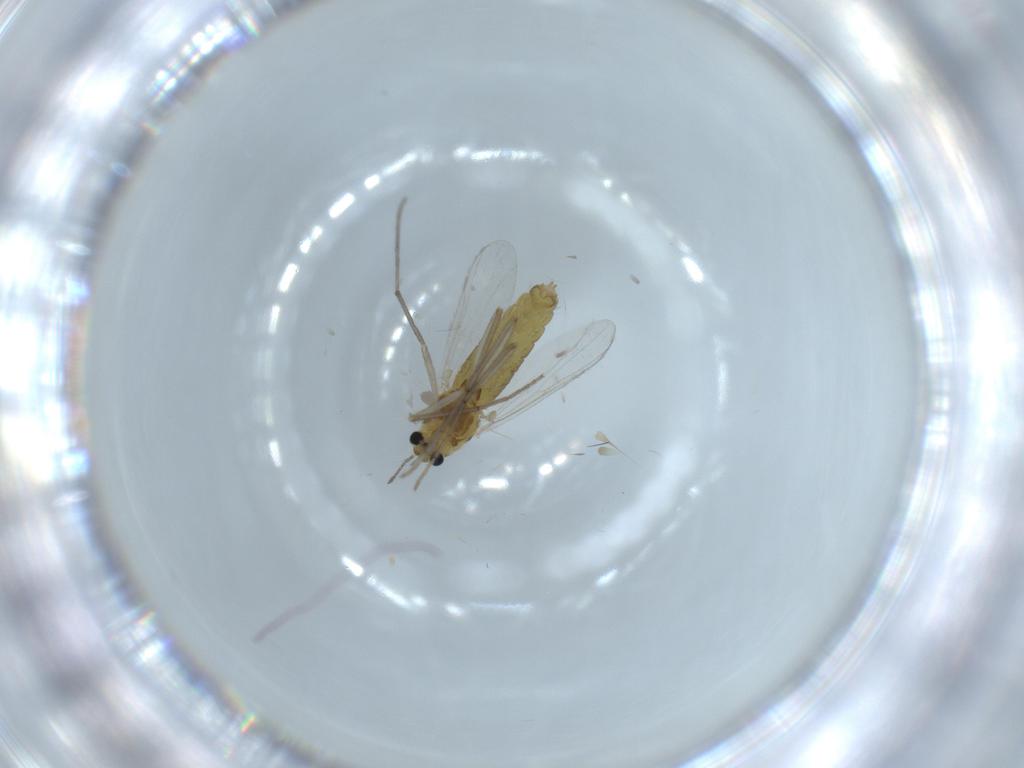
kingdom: Animalia
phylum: Arthropoda
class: Insecta
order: Diptera
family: Chironomidae
